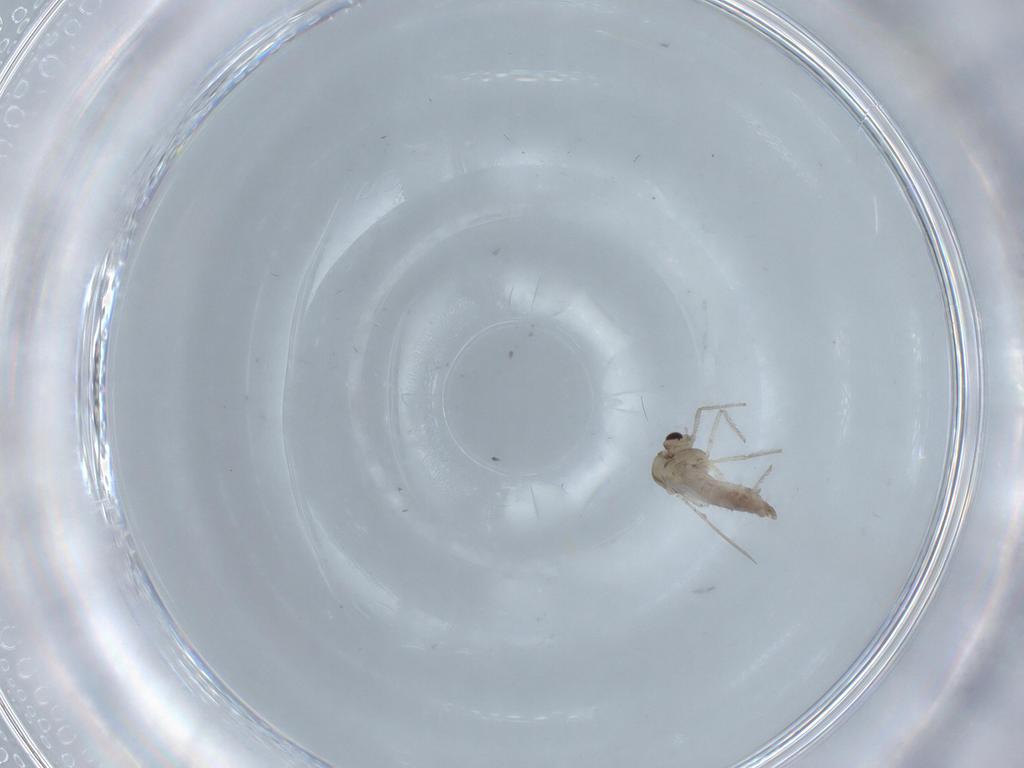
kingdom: Animalia
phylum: Arthropoda
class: Insecta
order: Diptera
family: Chironomidae
